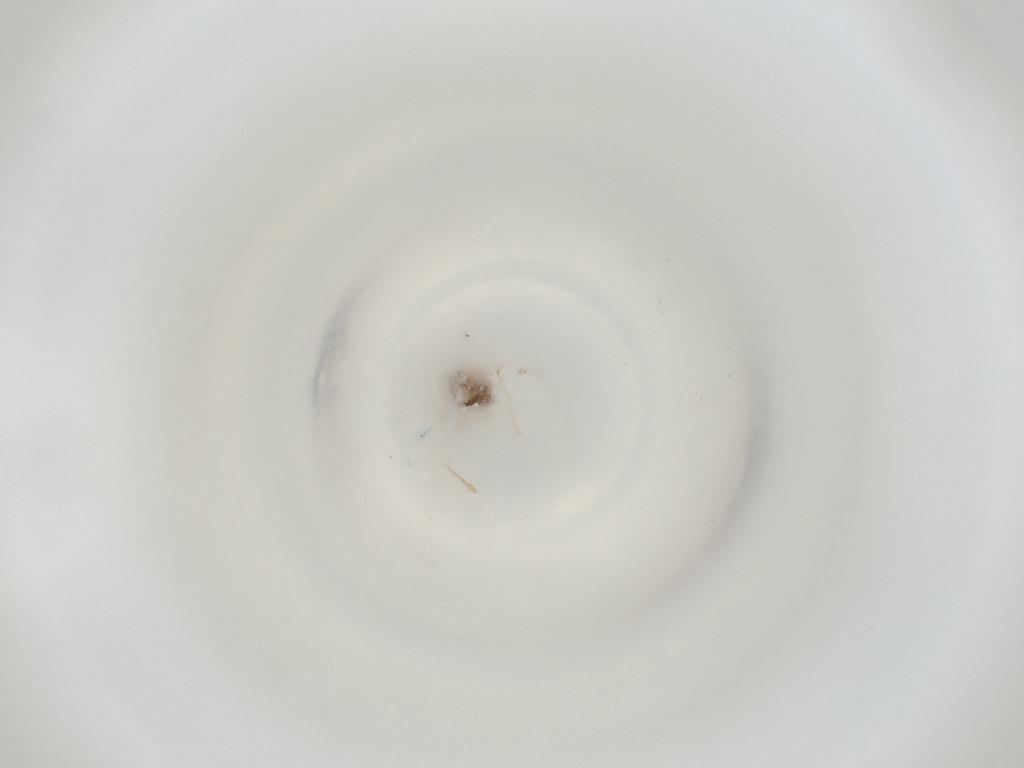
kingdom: Animalia
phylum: Arthropoda
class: Insecta
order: Diptera
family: Cecidomyiidae
